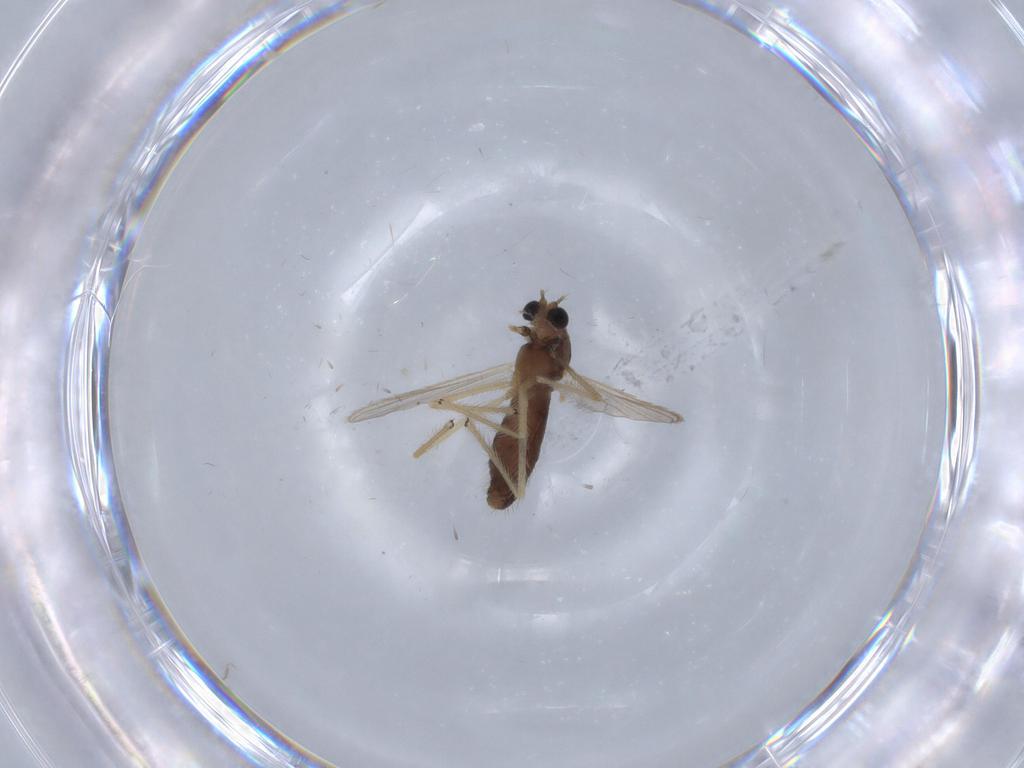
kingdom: Animalia
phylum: Arthropoda
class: Insecta
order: Diptera
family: Chironomidae
